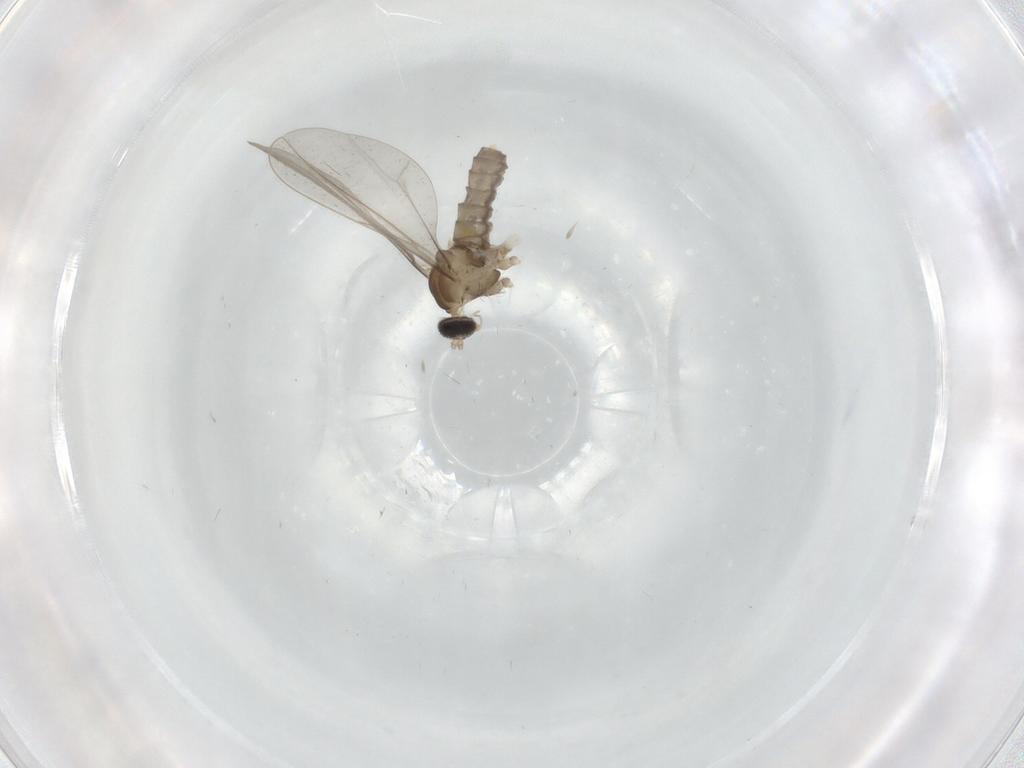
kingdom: Animalia
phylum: Arthropoda
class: Insecta
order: Diptera
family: Cecidomyiidae
